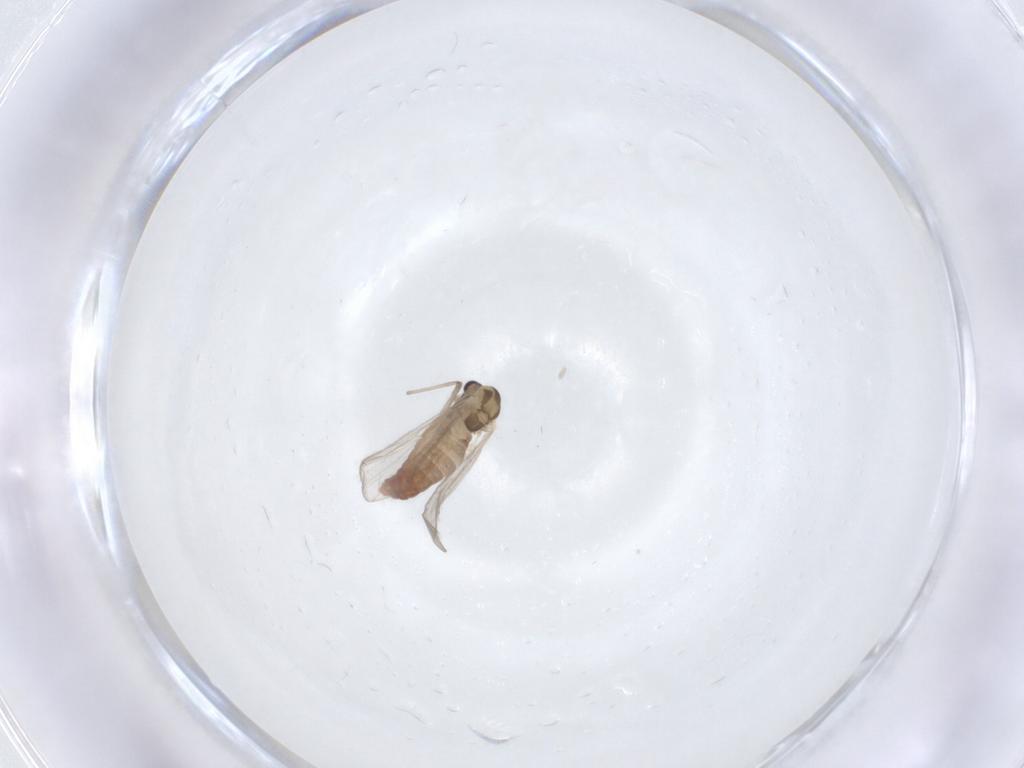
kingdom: Animalia
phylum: Arthropoda
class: Insecta
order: Diptera
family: Chironomidae
